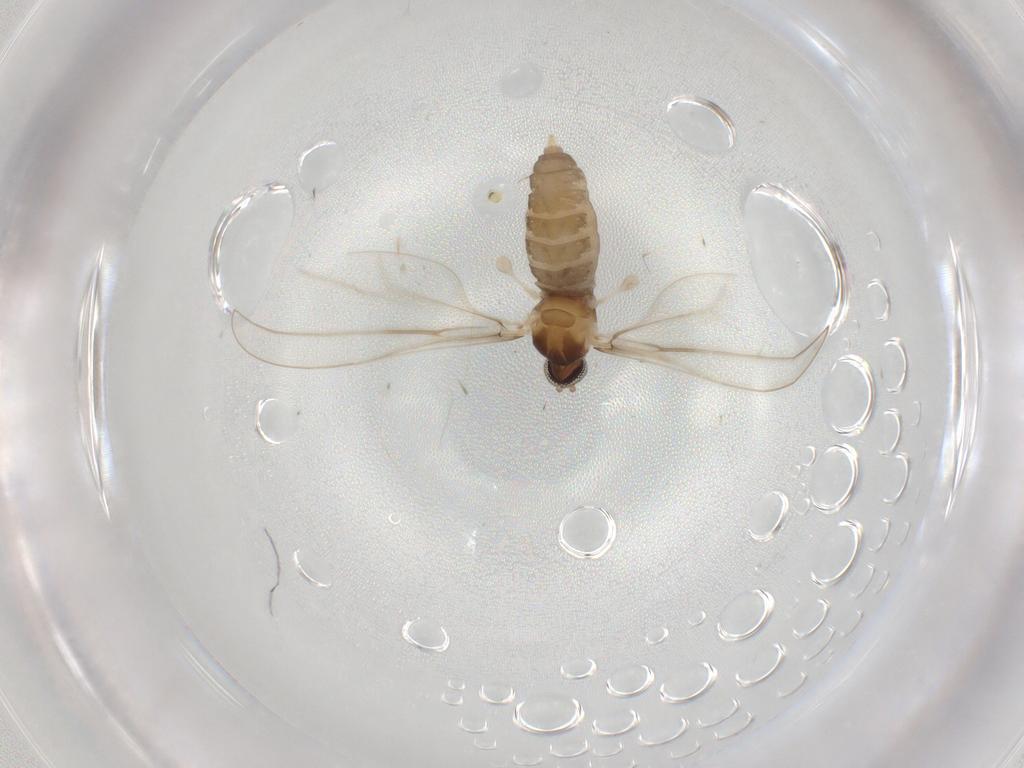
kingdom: Animalia
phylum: Arthropoda
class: Insecta
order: Diptera
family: Cecidomyiidae
